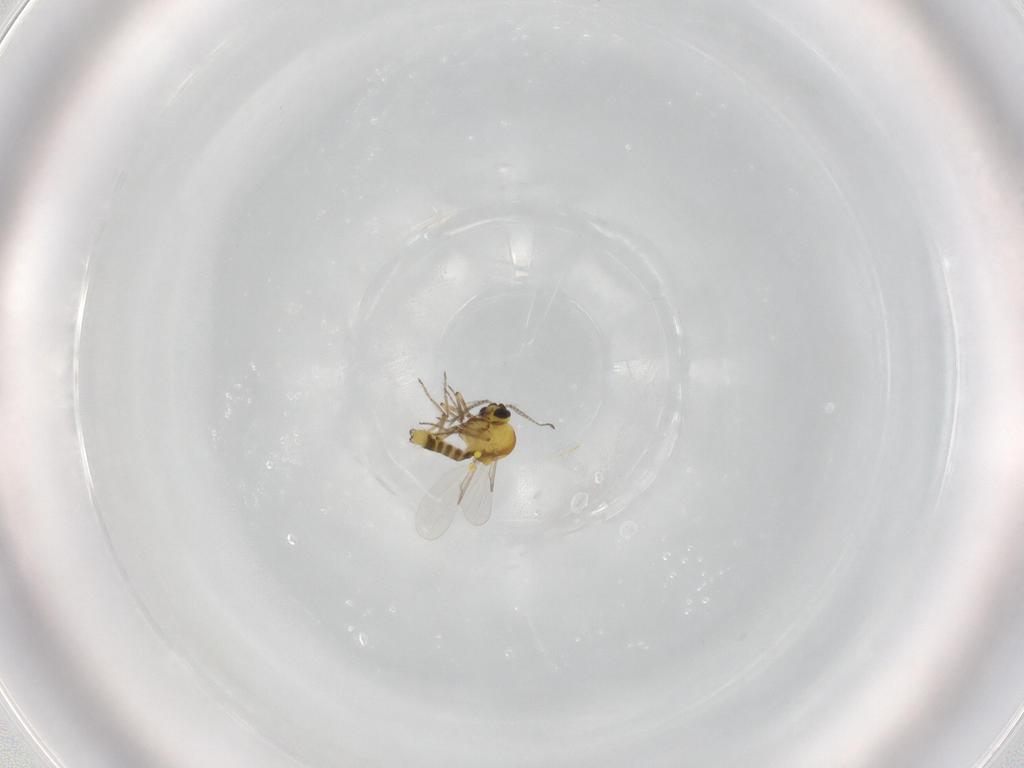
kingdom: Animalia
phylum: Arthropoda
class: Insecta
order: Diptera
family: Ceratopogonidae
